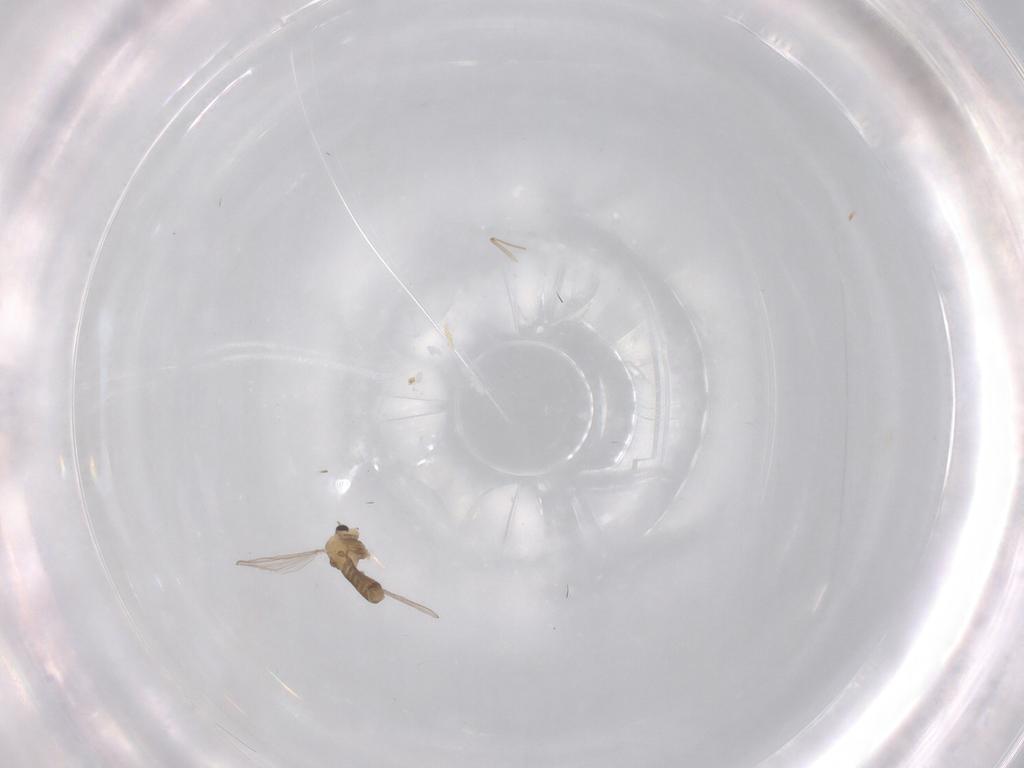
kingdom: Animalia
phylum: Arthropoda
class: Insecta
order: Diptera
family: Chironomidae
